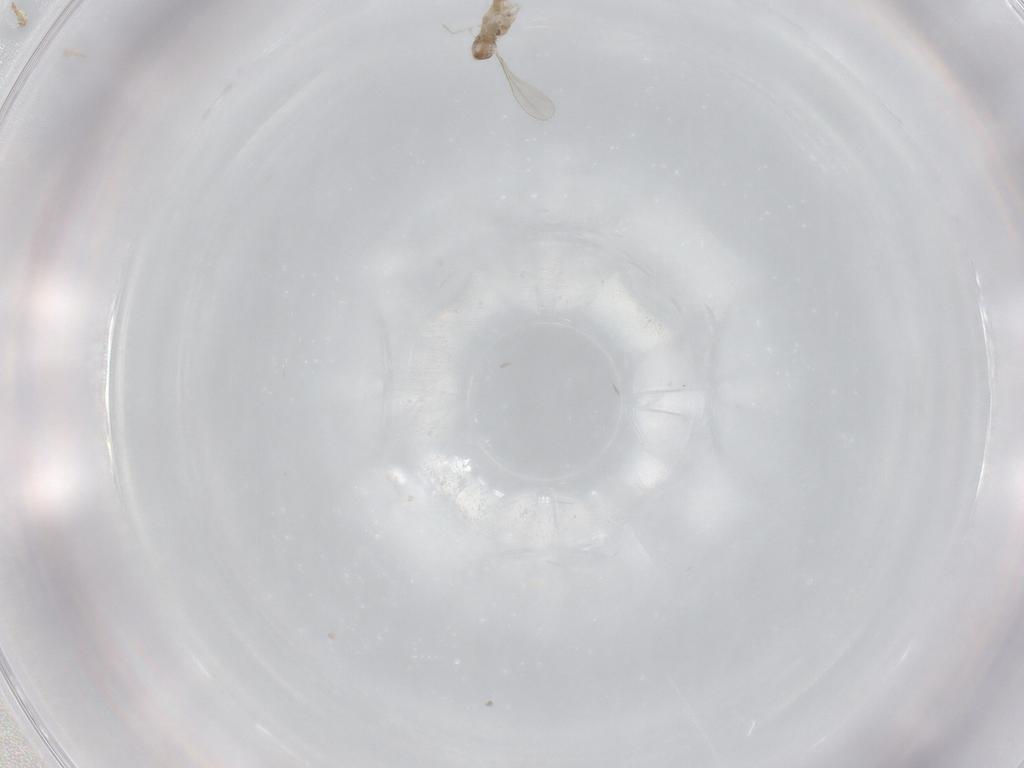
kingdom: Animalia
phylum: Arthropoda
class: Insecta
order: Diptera
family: Cecidomyiidae
